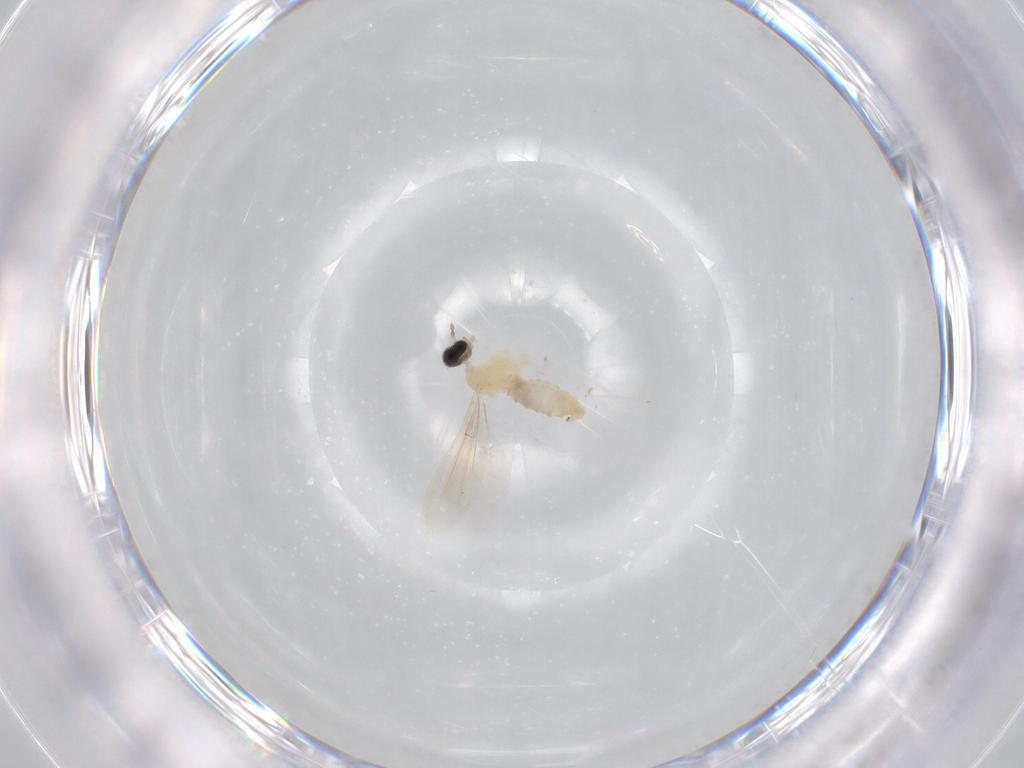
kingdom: Animalia
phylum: Arthropoda
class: Insecta
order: Diptera
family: Cecidomyiidae
